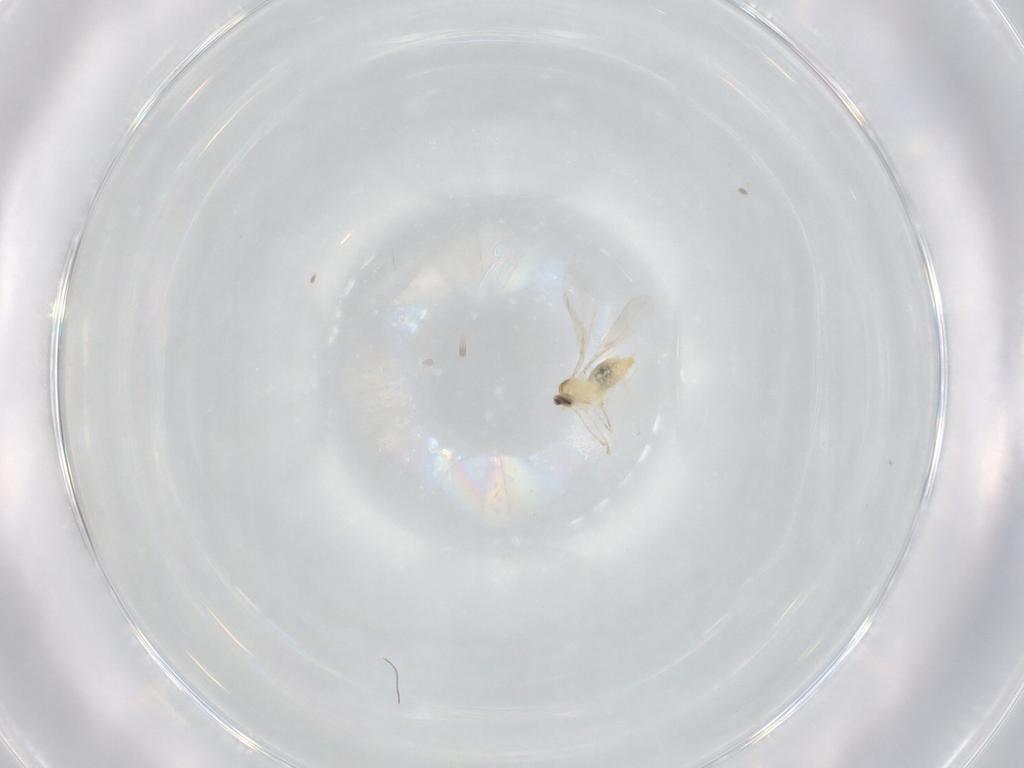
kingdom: Animalia
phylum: Arthropoda
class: Insecta
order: Diptera
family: Cecidomyiidae
